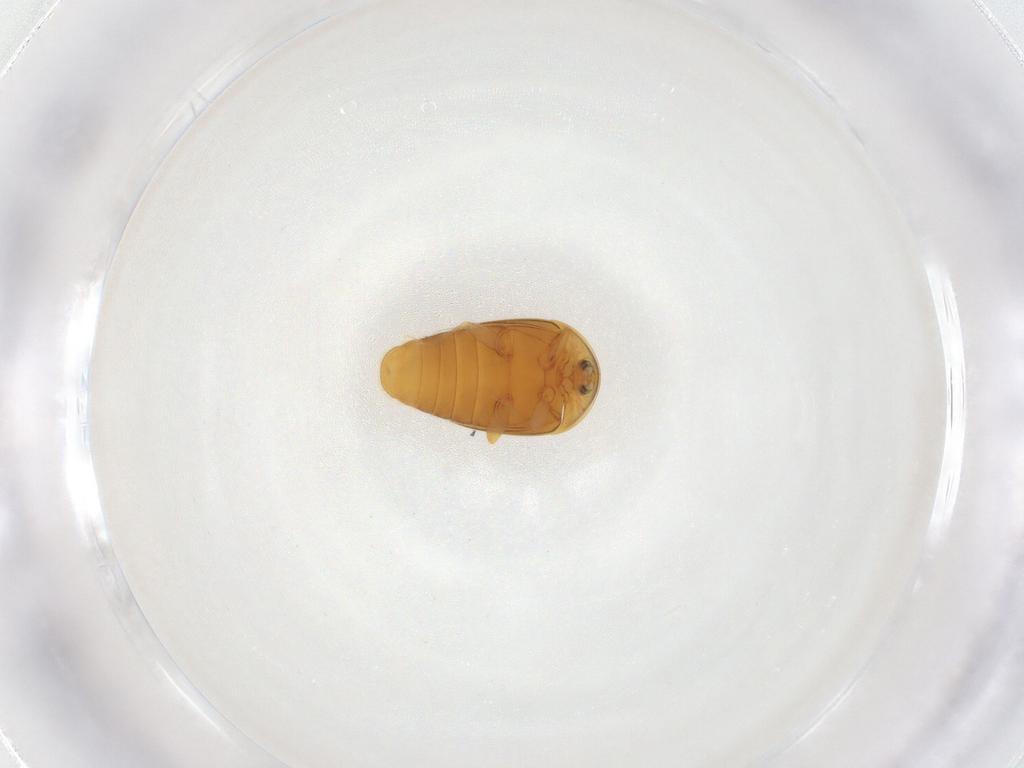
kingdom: Animalia
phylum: Arthropoda
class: Insecta
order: Coleoptera
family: Corylophidae
